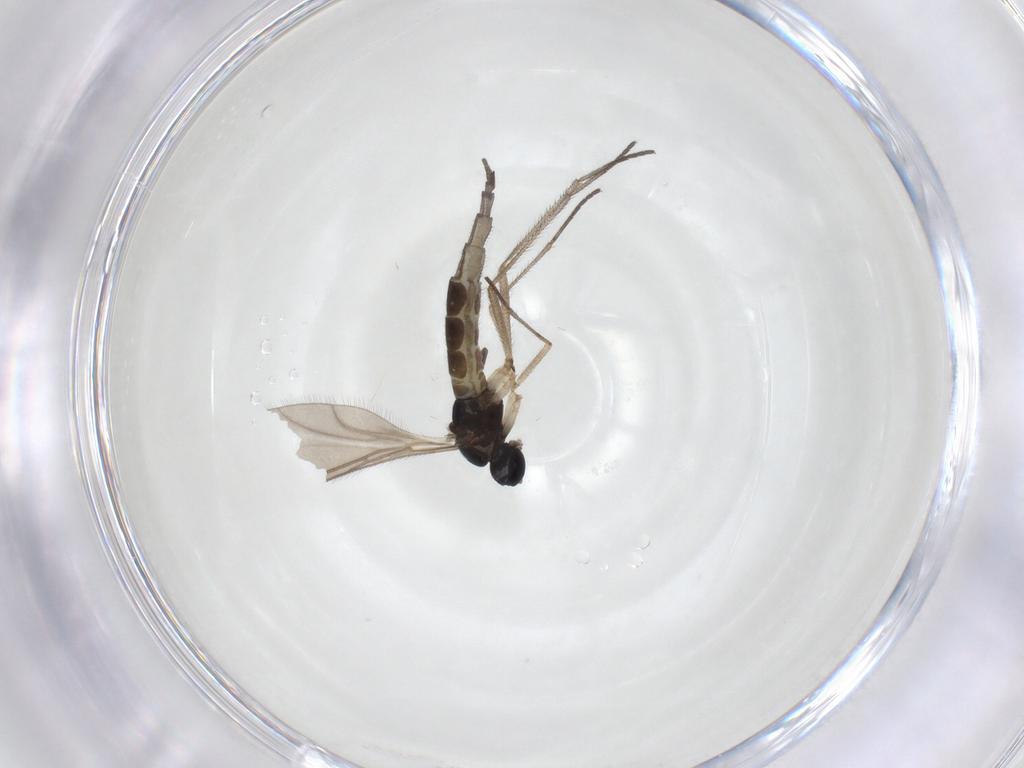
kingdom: Animalia
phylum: Arthropoda
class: Insecta
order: Diptera
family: Sciaridae
